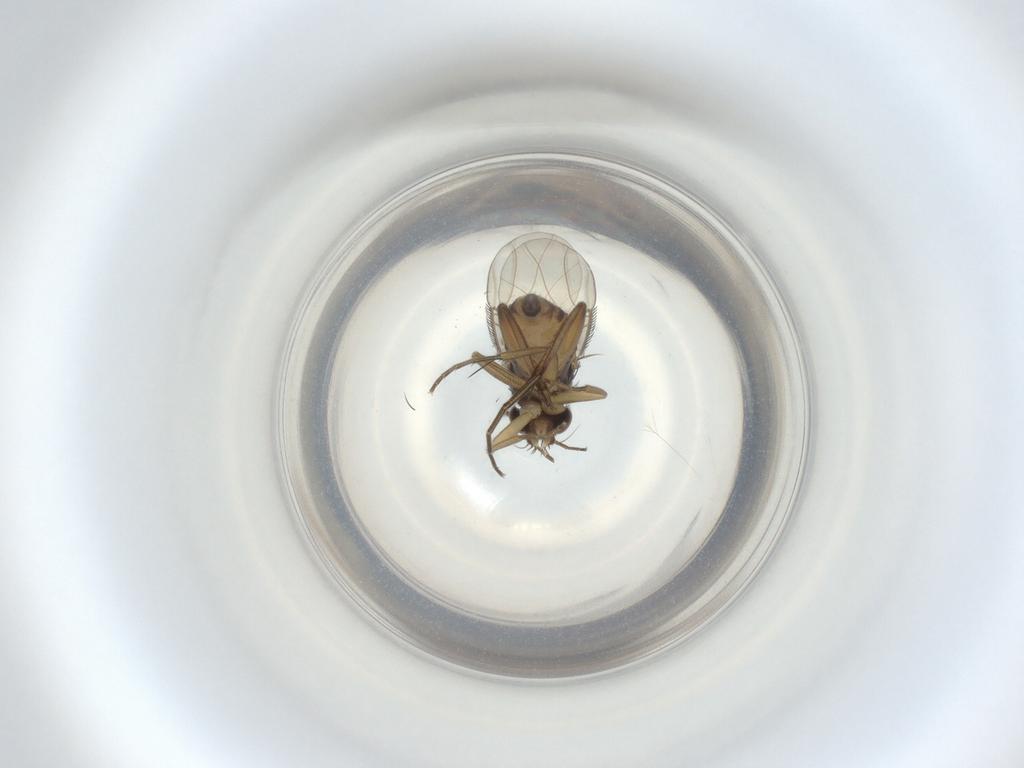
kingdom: Animalia
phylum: Arthropoda
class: Insecta
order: Diptera
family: Phoridae
